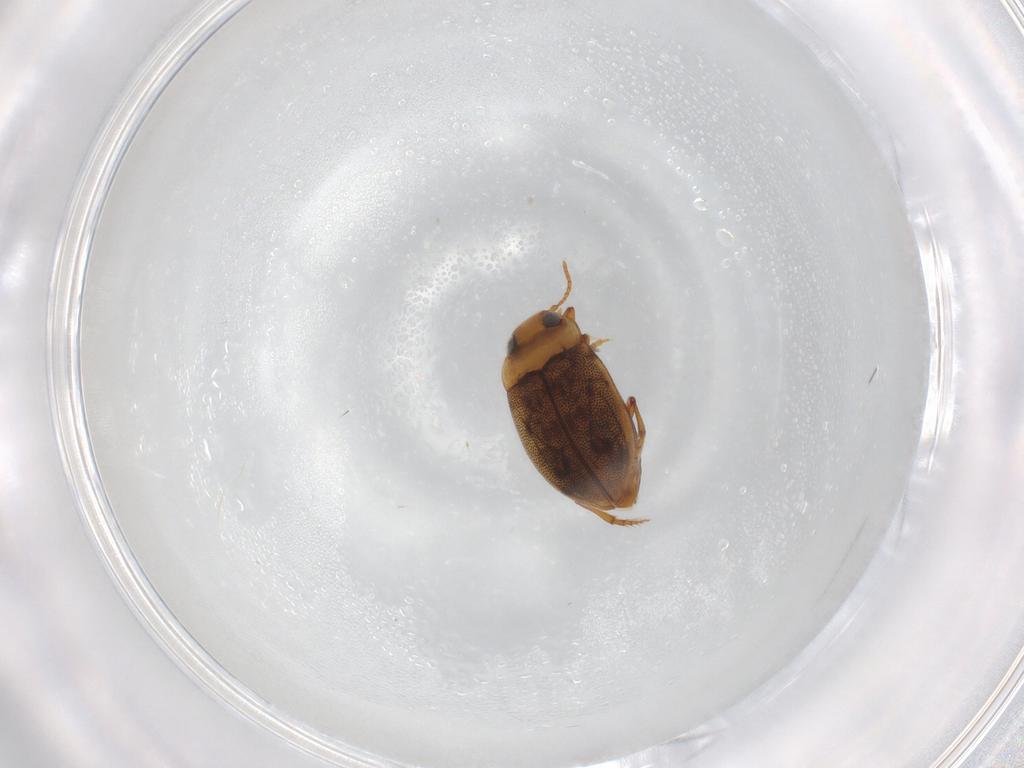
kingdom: Animalia
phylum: Arthropoda
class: Insecta
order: Coleoptera
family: Dytiscidae
